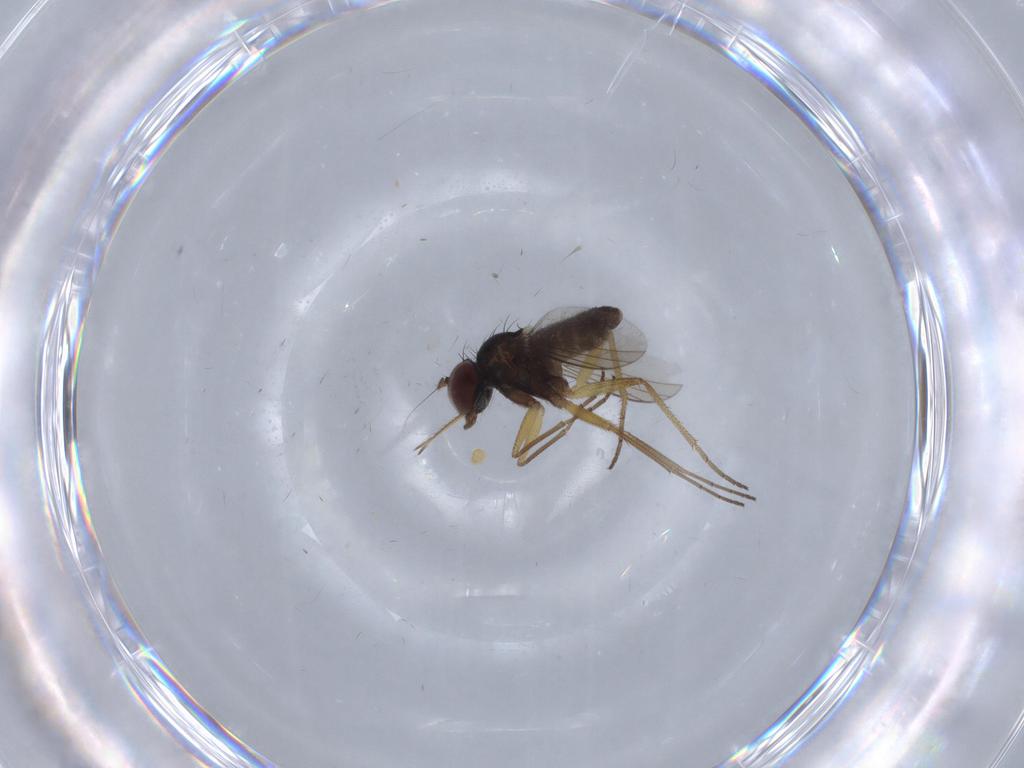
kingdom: Animalia
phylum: Arthropoda
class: Insecta
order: Diptera
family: Dolichopodidae
